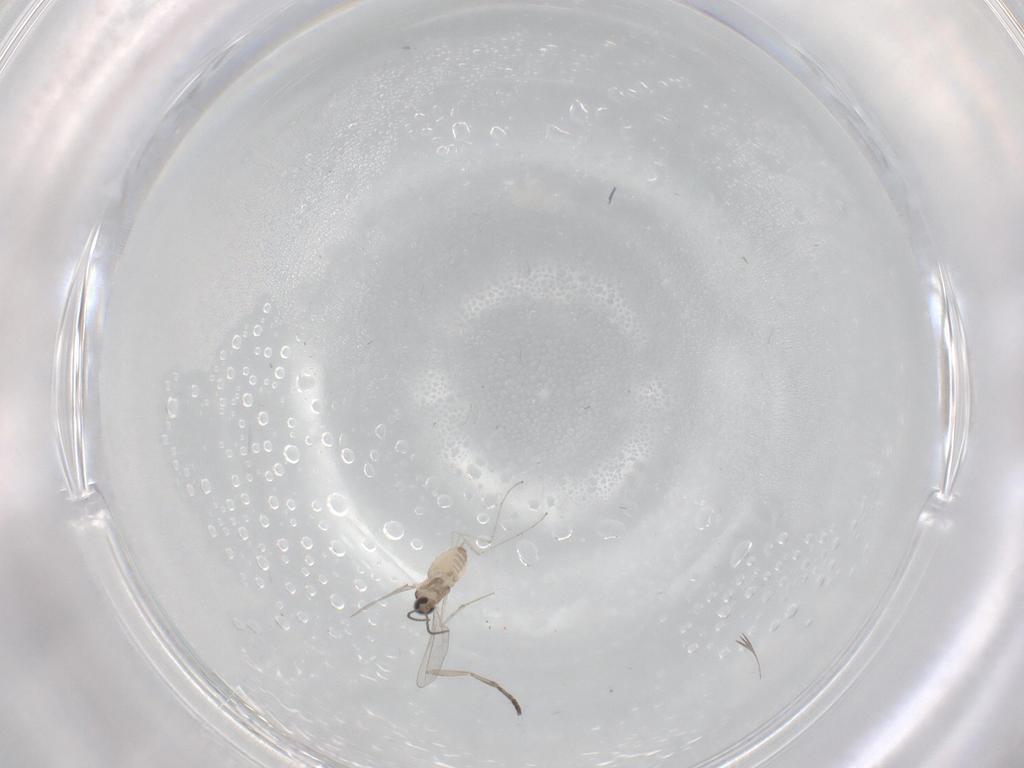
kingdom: Animalia
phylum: Arthropoda
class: Insecta
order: Diptera
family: Cecidomyiidae
